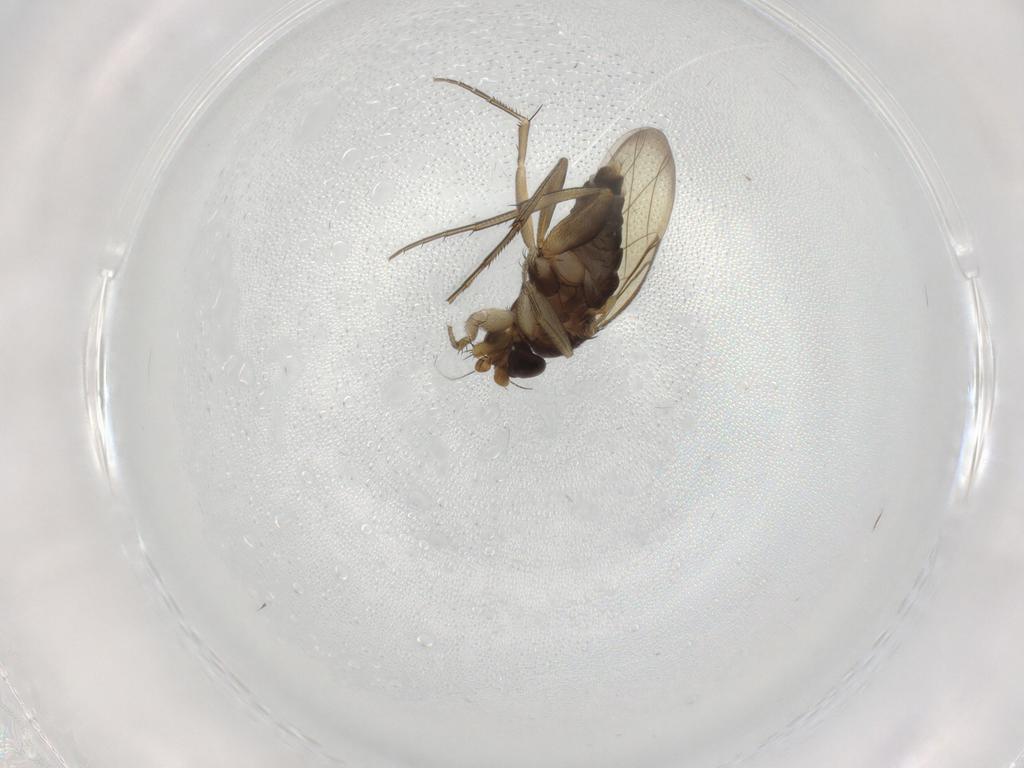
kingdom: Animalia
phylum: Arthropoda
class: Insecta
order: Diptera
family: Phoridae
